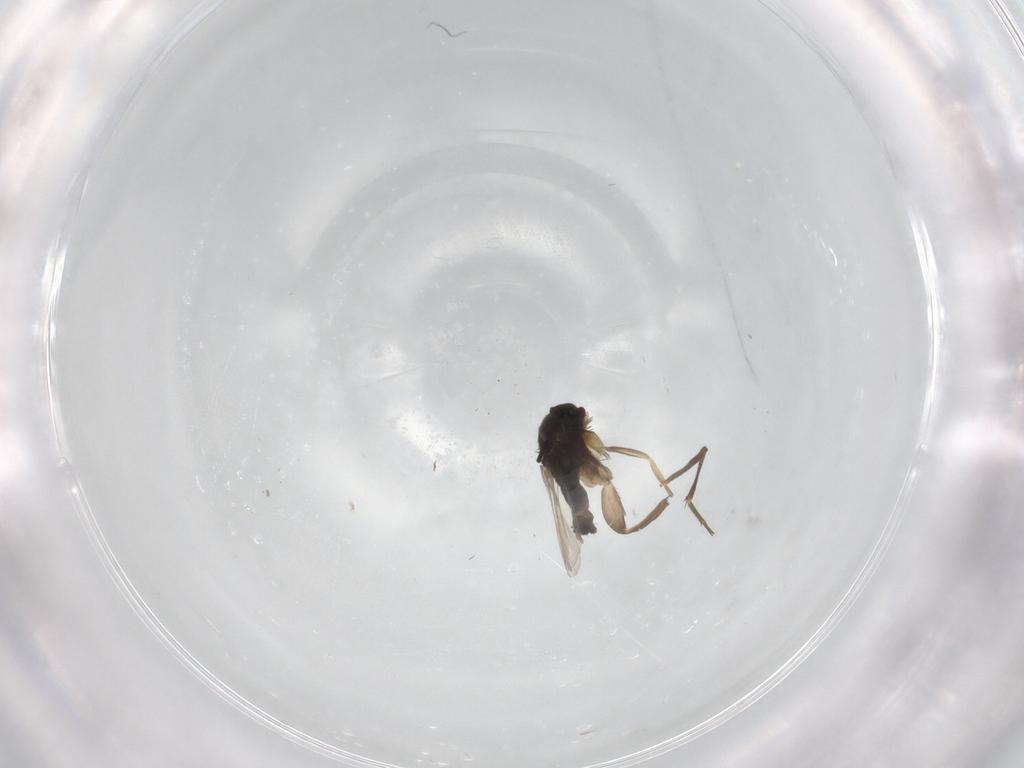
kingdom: Animalia
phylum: Arthropoda
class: Insecta
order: Diptera
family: Phoridae
